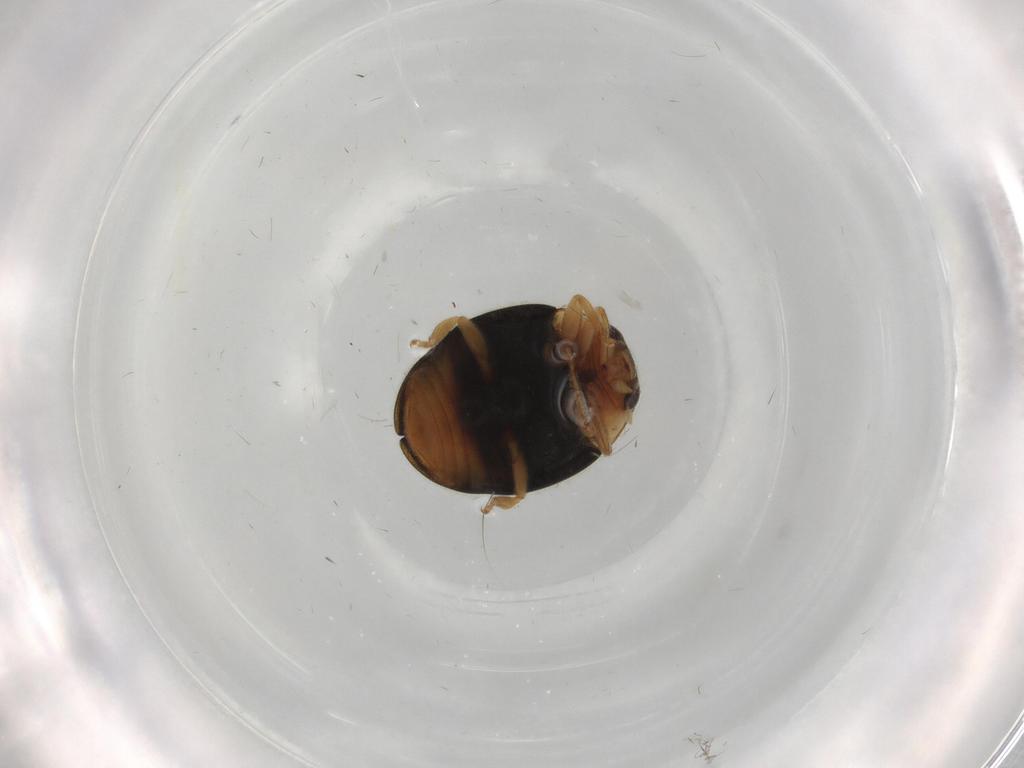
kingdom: Animalia
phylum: Arthropoda
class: Insecta
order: Coleoptera
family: Coccinellidae
